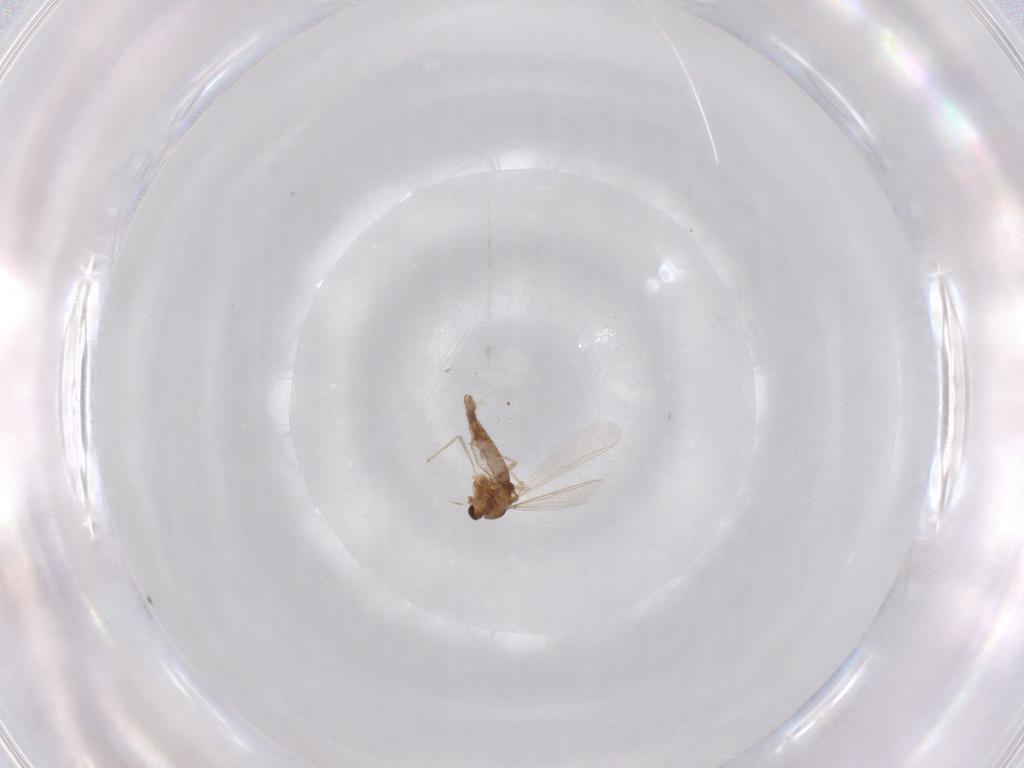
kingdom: Animalia
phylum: Arthropoda
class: Insecta
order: Diptera
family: Chironomidae
